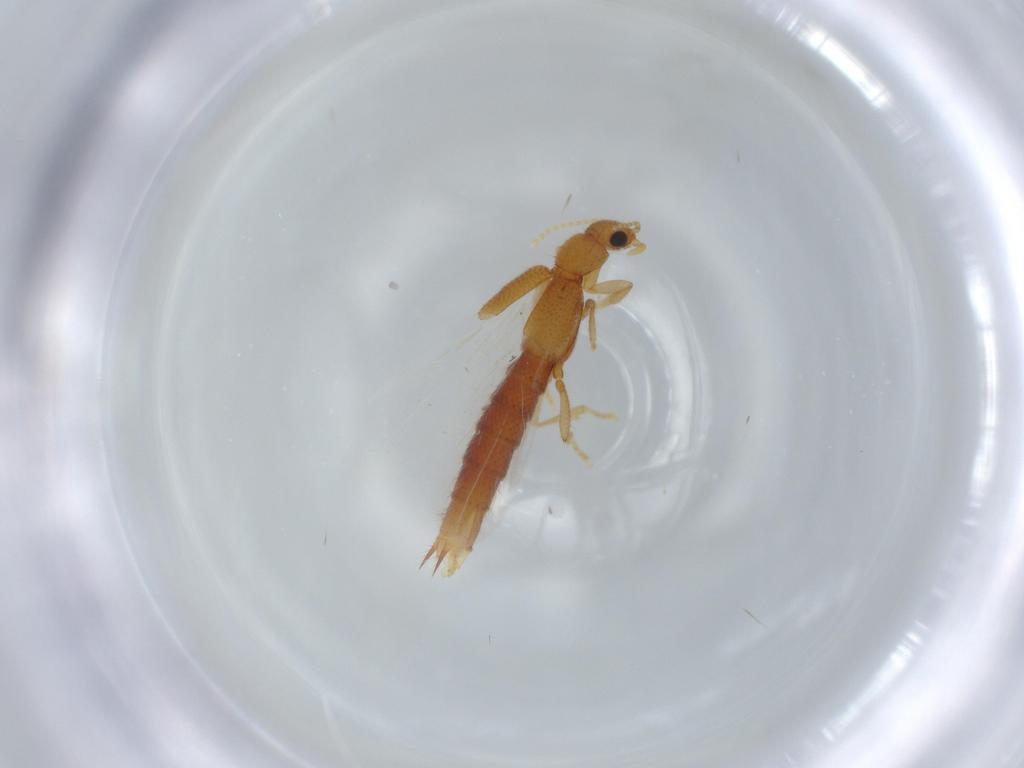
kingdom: Animalia
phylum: Arthropoda
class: Insecta
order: Coleoptera
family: Staphylinidae
